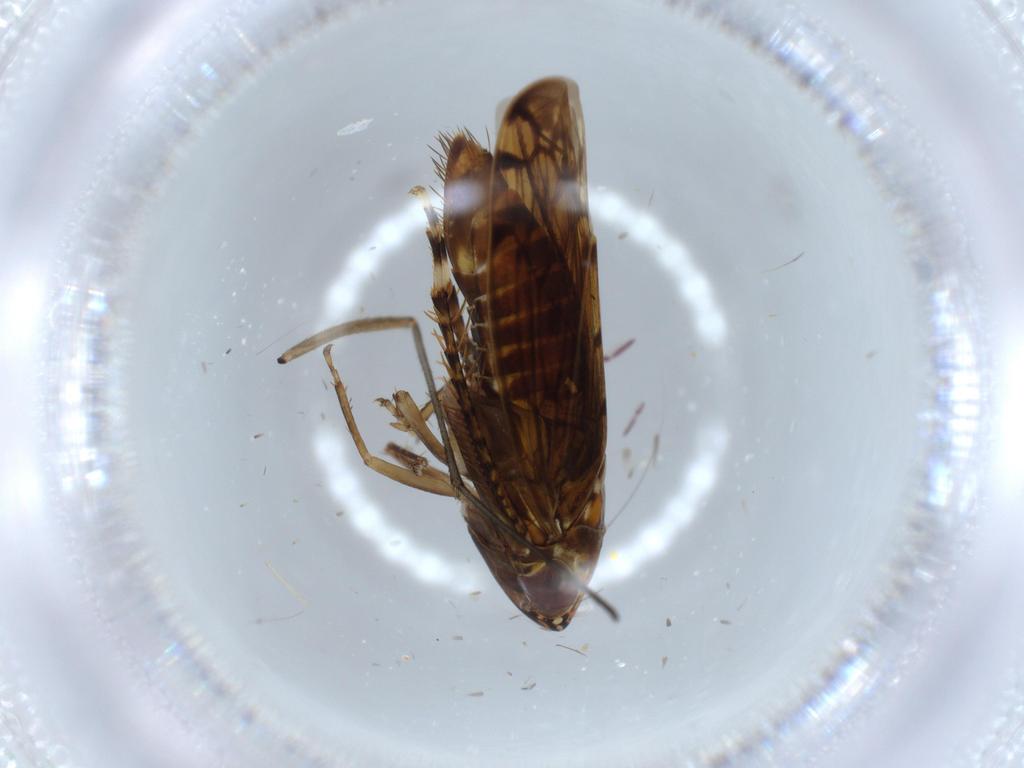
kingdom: Animalia
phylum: Arthropoda
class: Insecta
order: Hemiptera
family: Cicadellidae
